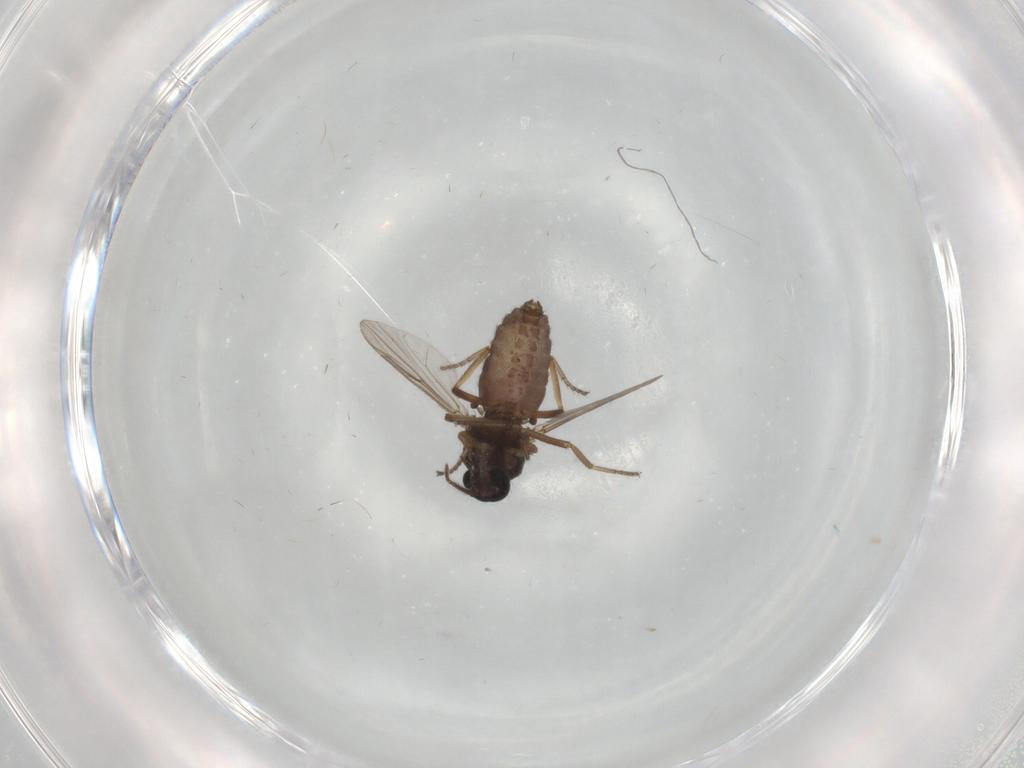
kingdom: Animalia
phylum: Arthropoda
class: Insecta
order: Diptera
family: Ceratopogonidae
